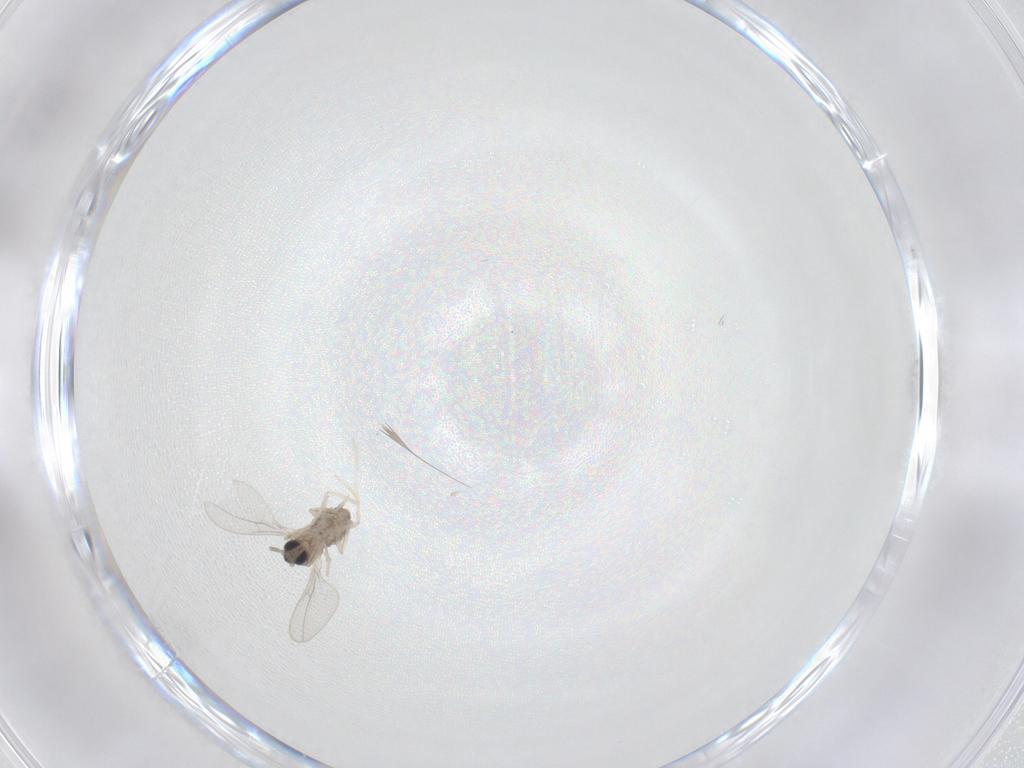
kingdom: Animalia
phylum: Arthropoda
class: Insecta
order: Diptera
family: Cecidomyiidae
